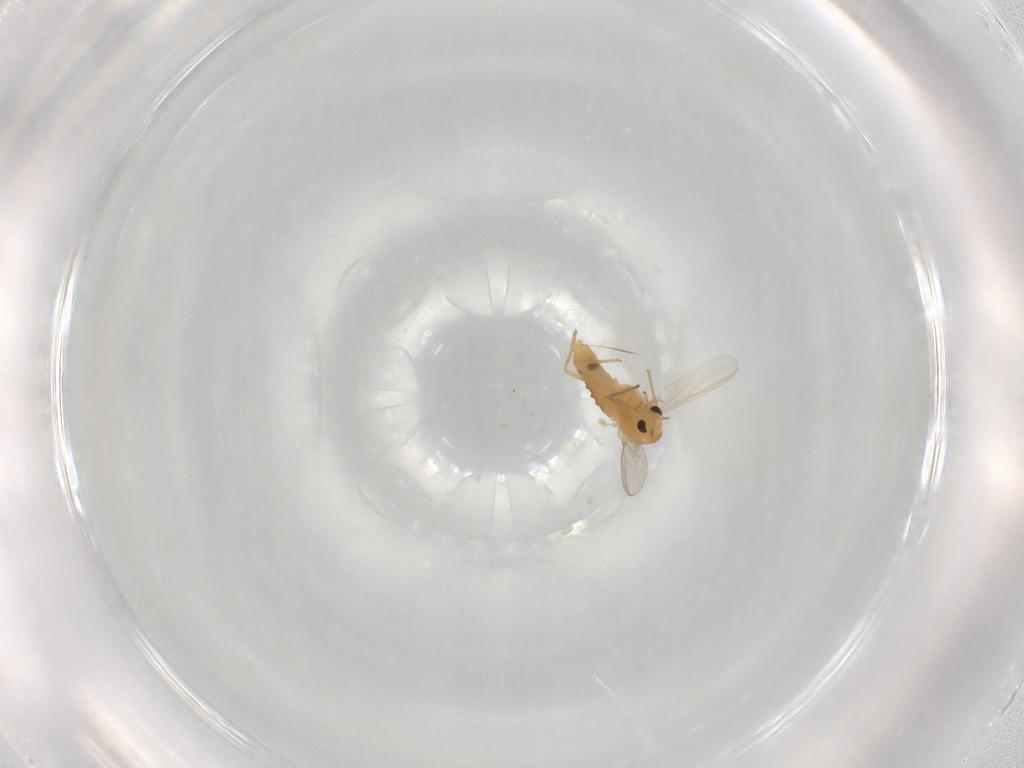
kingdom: Animalia
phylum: Arthropoda
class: Insecta
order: Diptera
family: Chironomidae
